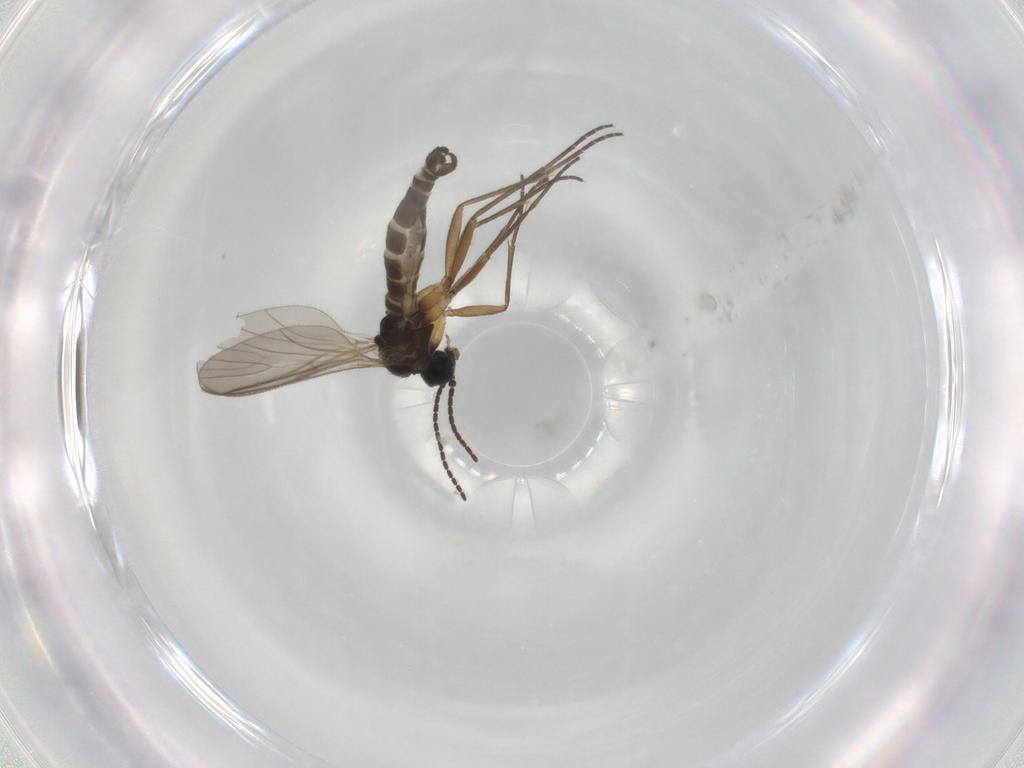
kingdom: Animalia
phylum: Arthropoda
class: Insecta
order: Diptera
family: Sciaridae
